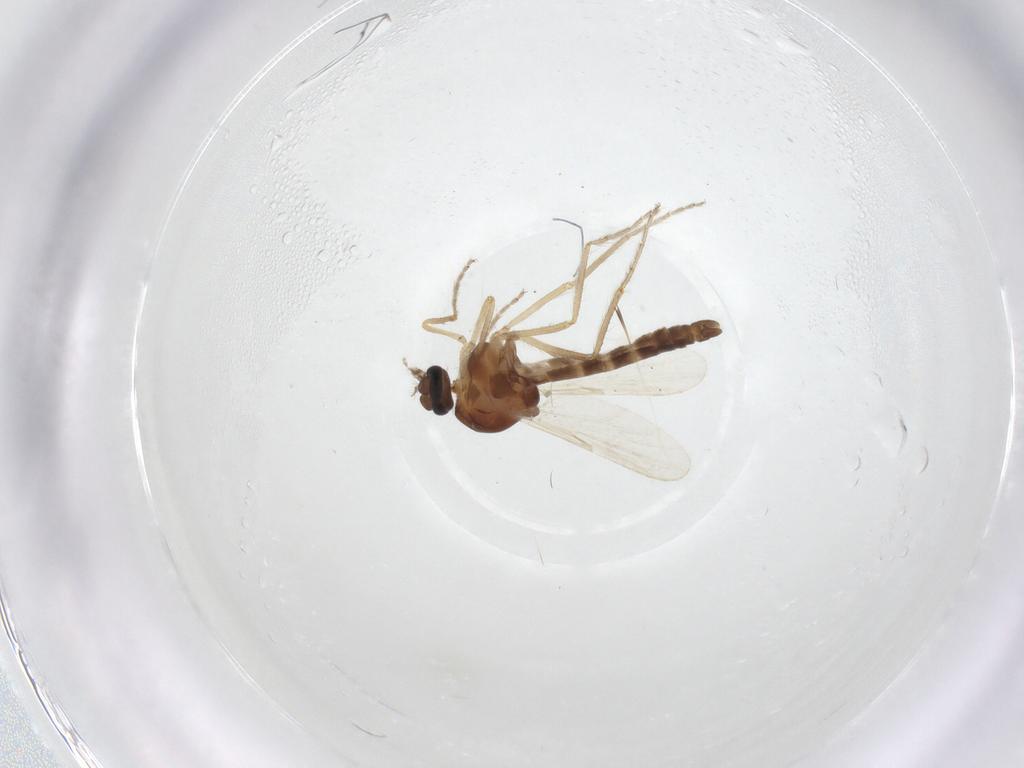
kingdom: Animalia
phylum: Arthropoda
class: Insecta
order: Diptera
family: Ceratopogonidae
